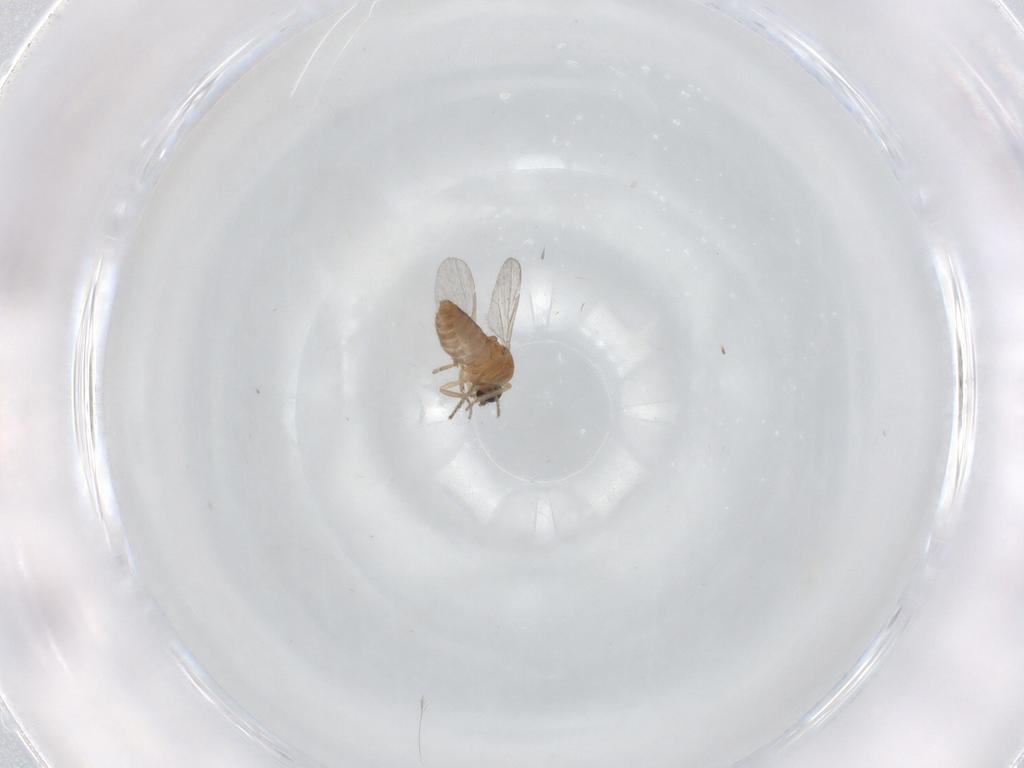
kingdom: Animalia
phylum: Arthropoda
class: Insecta
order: Diptera
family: Ceratopogonidae
